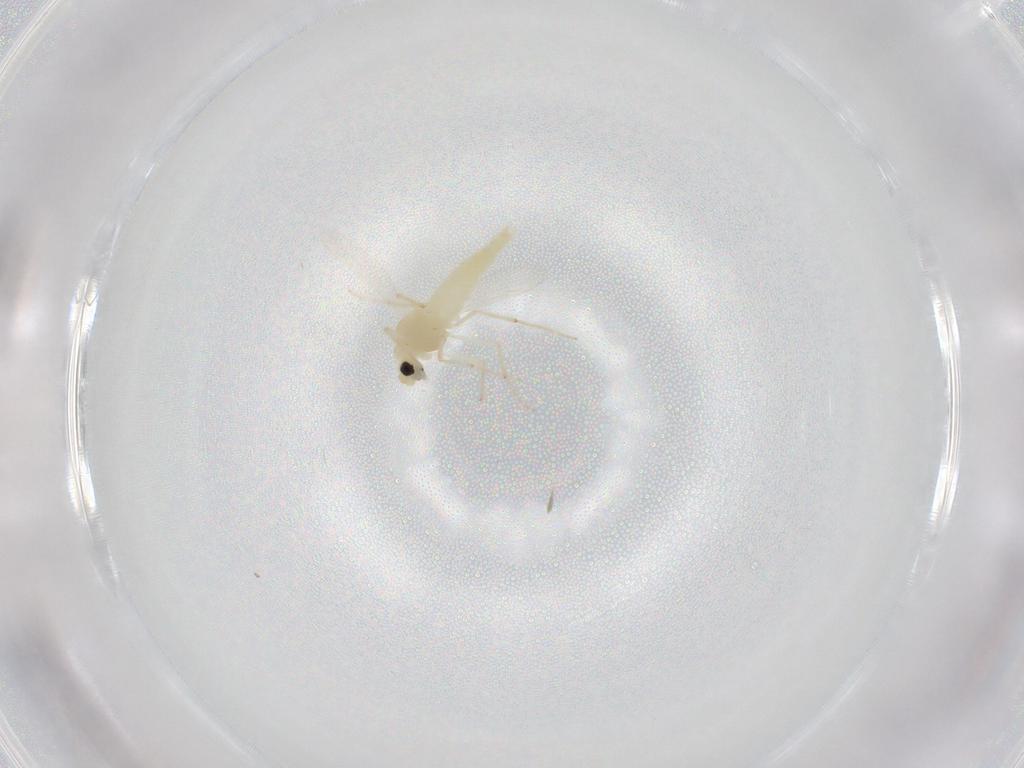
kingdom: Animalia
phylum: Arthropoda
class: Insecta
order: Diptera
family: Chironomidae
